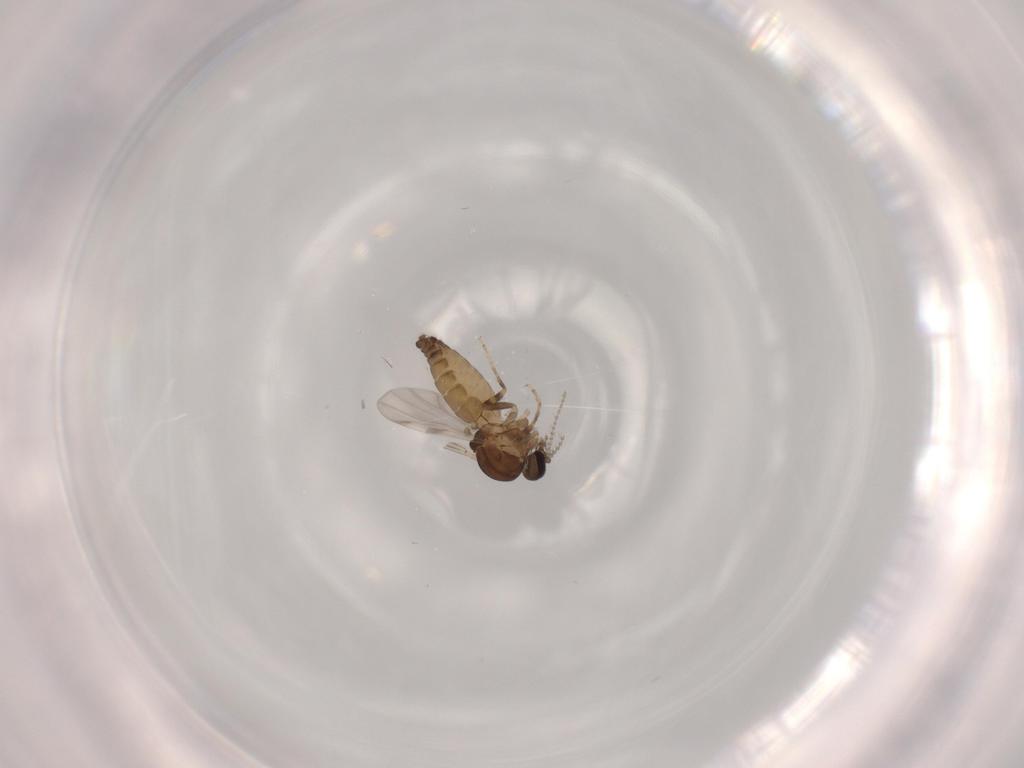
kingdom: Animalia
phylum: Arthropoda
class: Insecta
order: Diptera
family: Ceratopogonidae
